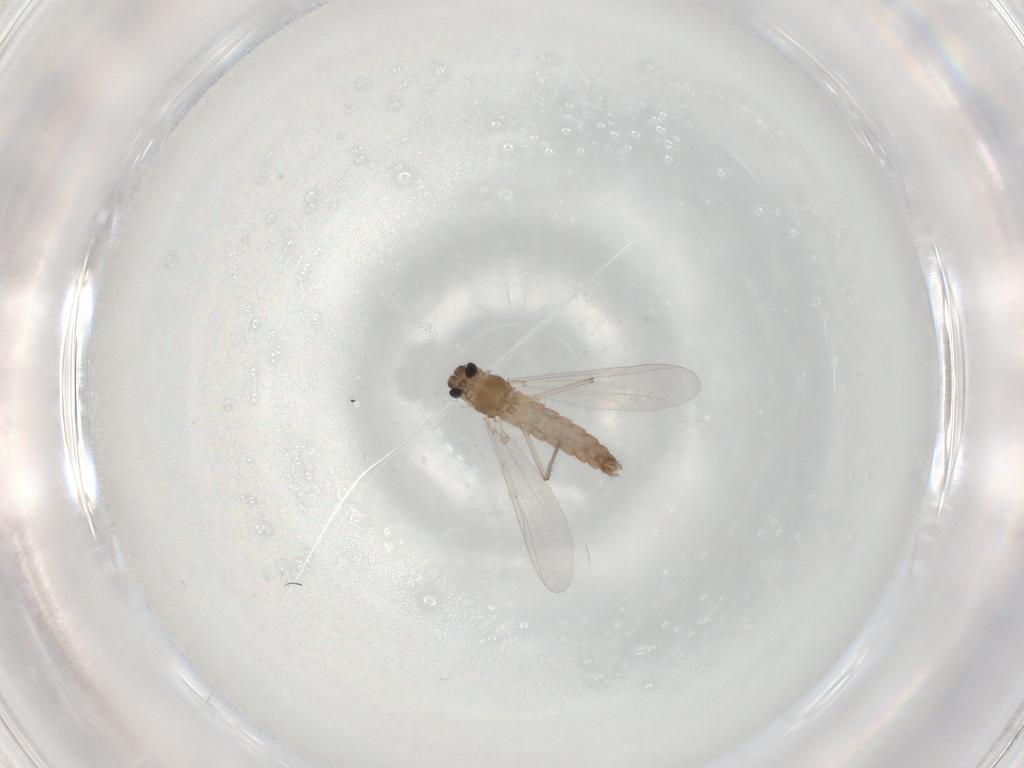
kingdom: Animalia
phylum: Arthropoda
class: Insecta
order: Diptera
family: Chironomidae
